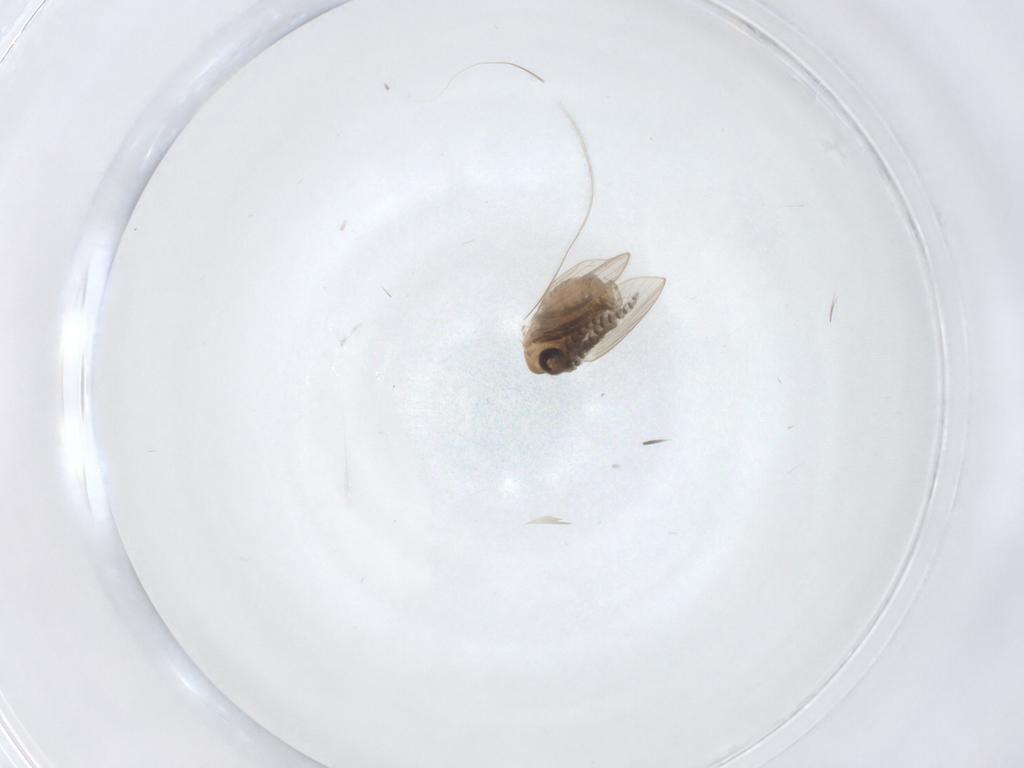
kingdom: Animalia
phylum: Arthropoda
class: Insecta
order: Diptera
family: Psychodidae
